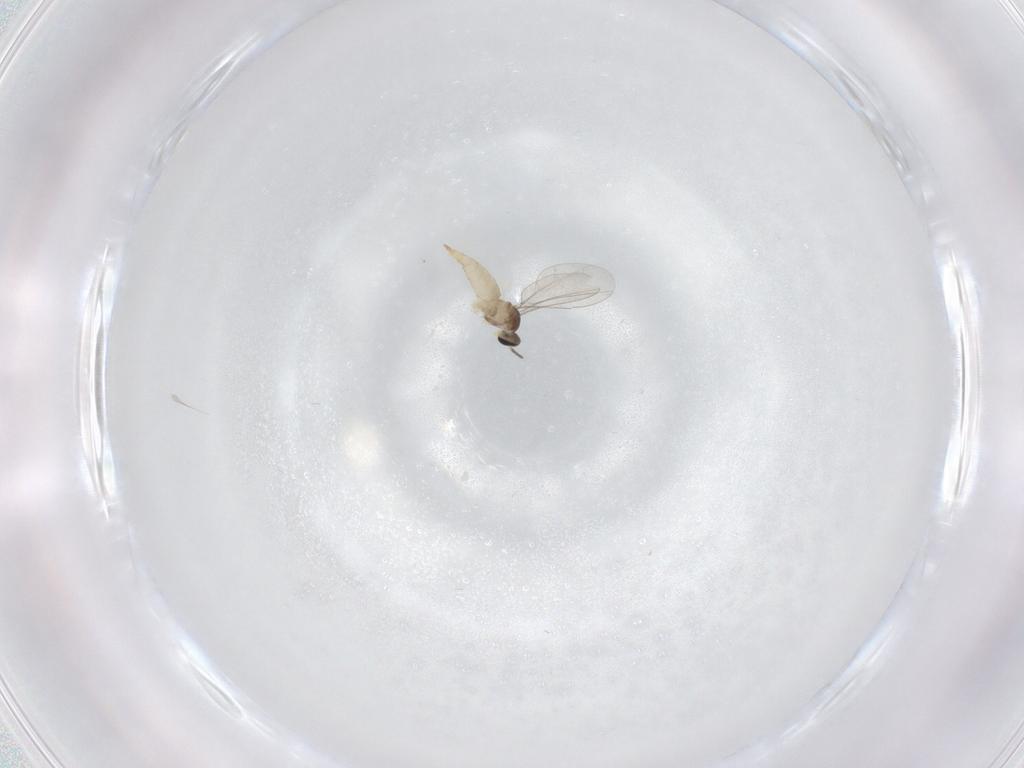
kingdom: Animalia
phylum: Arthropoda
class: Insecta
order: Diptera
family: Cecidomyiidae
